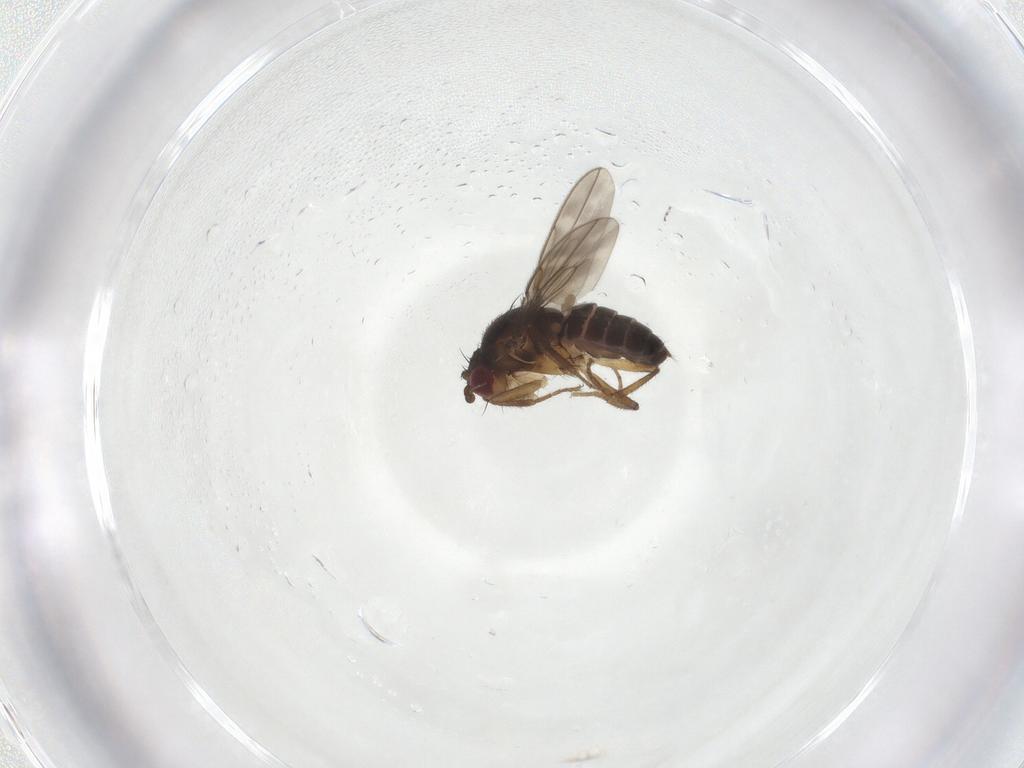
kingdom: Animalia
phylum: Arthropoda
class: Insecta
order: Diptera
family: Sphaeroceridae
